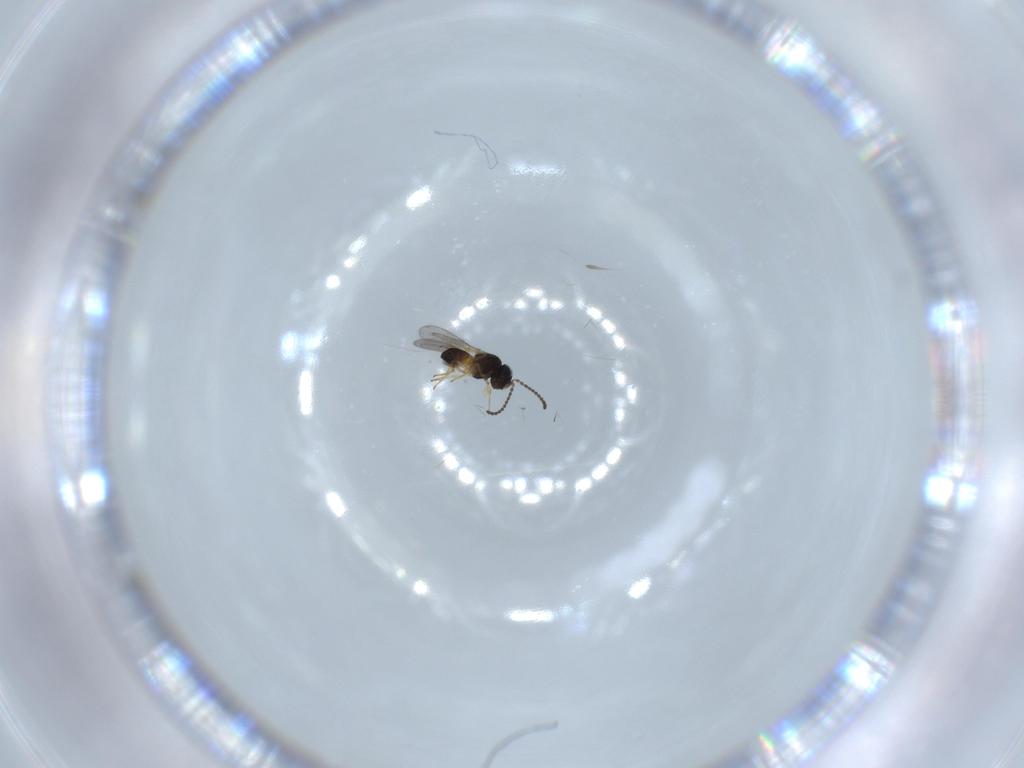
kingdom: Animalia
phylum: Arthropoda
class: Insecta
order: Hymenoptera
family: Scelionidae
